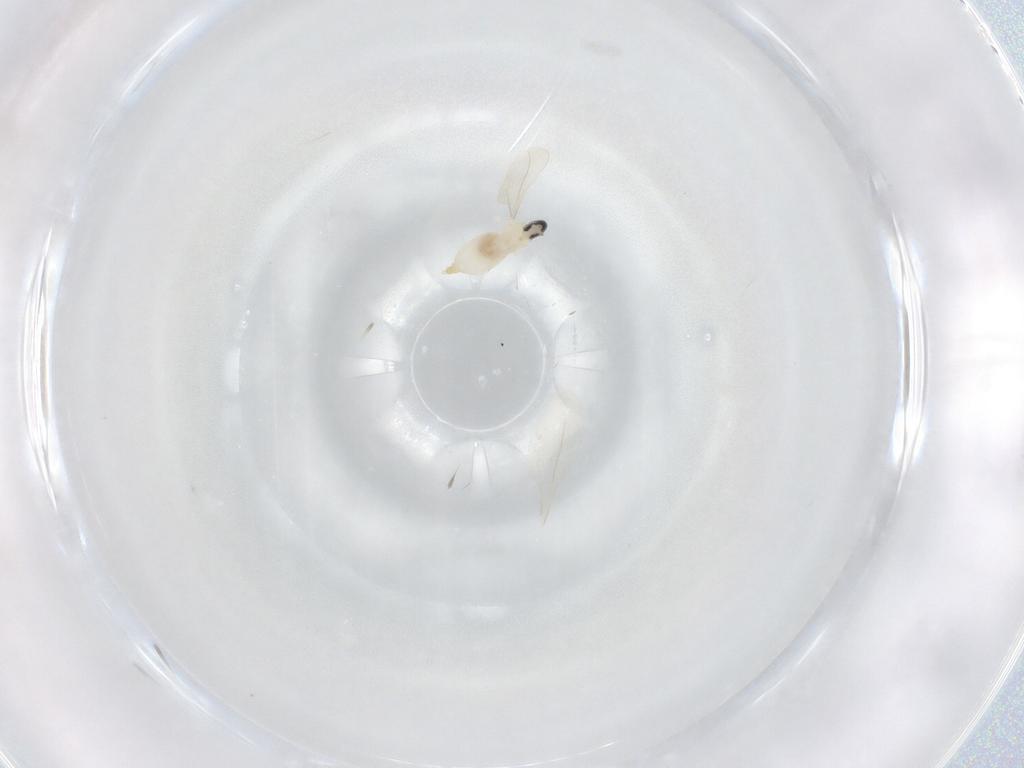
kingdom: Animalia
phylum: Arthropoda
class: Insecta
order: Diptera
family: Cecidomyiidae
